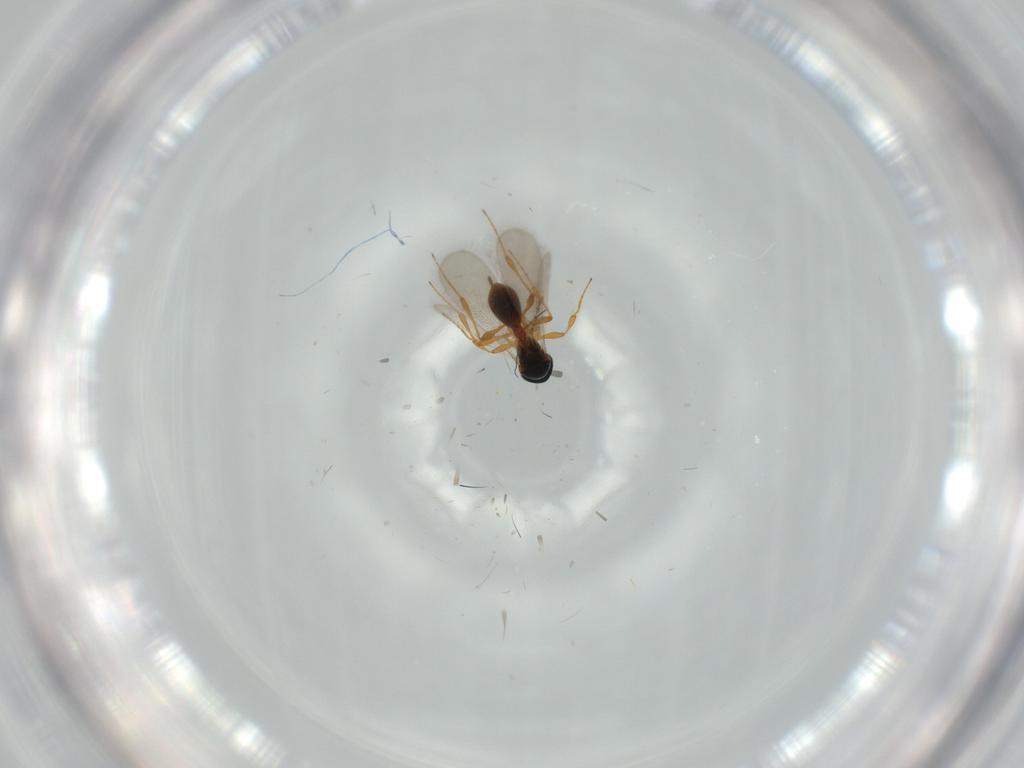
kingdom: Animalia
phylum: Arthropoda
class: Insecta
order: Hymenoptera
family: Platygastridae
